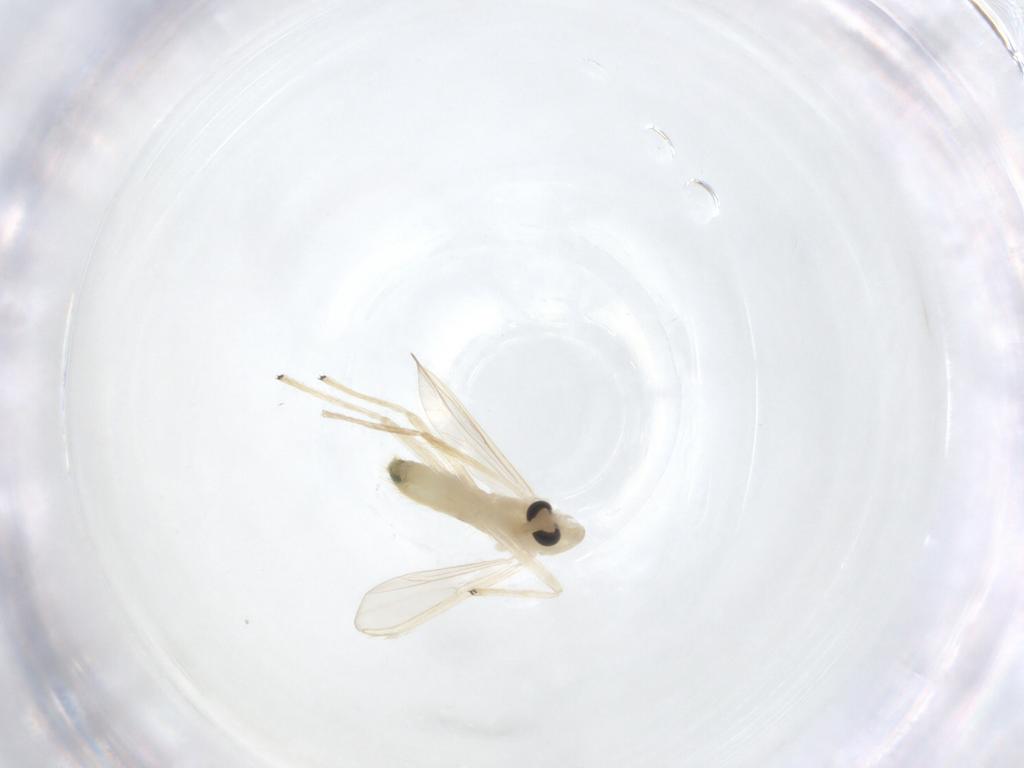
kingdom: Animalia
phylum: Arthropoda
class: Insecta
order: Diptera
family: Chironomidae
